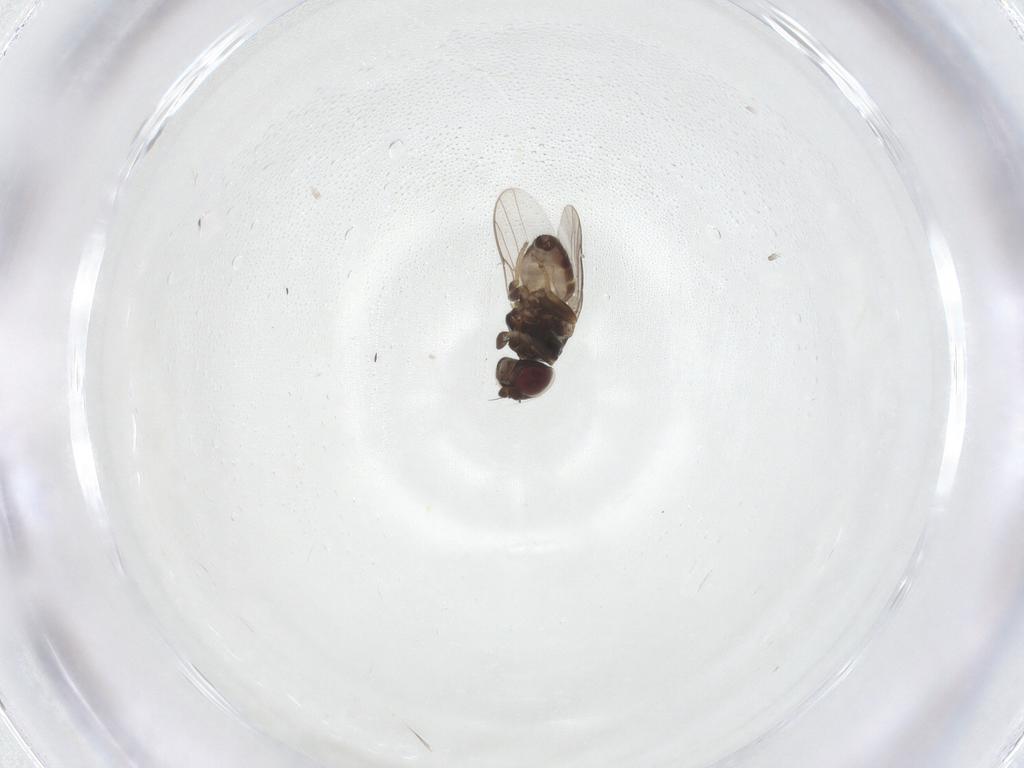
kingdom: Animalia
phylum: Arthropoda
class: Insecta
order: Diptera
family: Chloropidae
